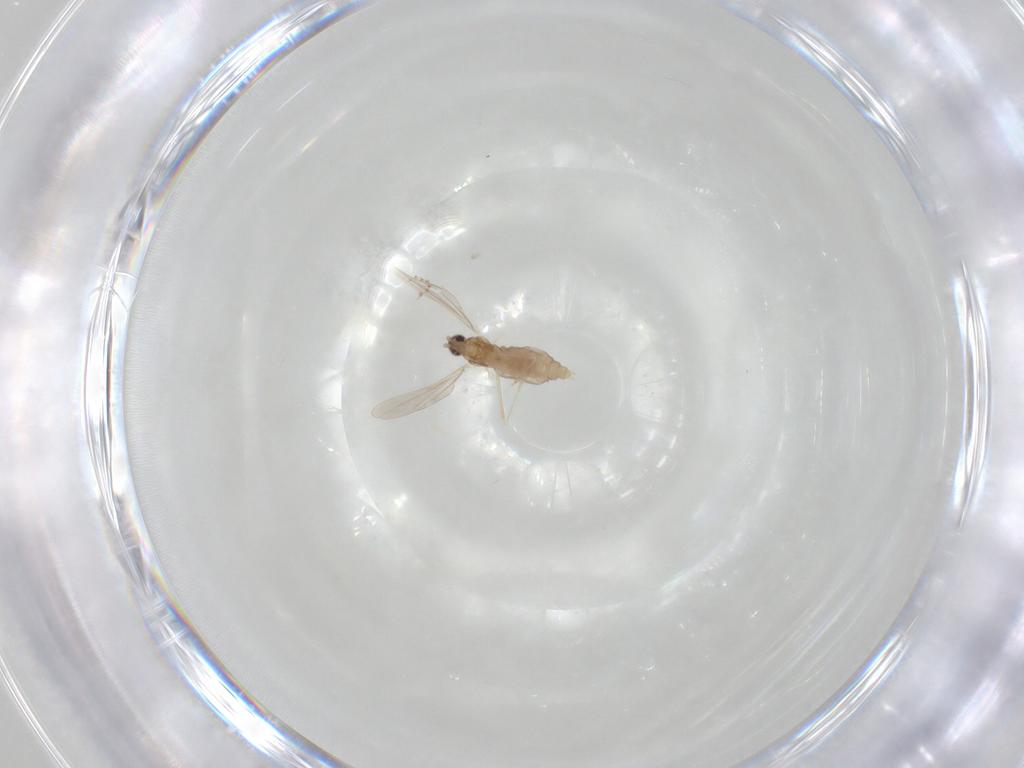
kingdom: Animalia
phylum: Arthropoda
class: Insecta
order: Diptera
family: Cecidomyiidae
